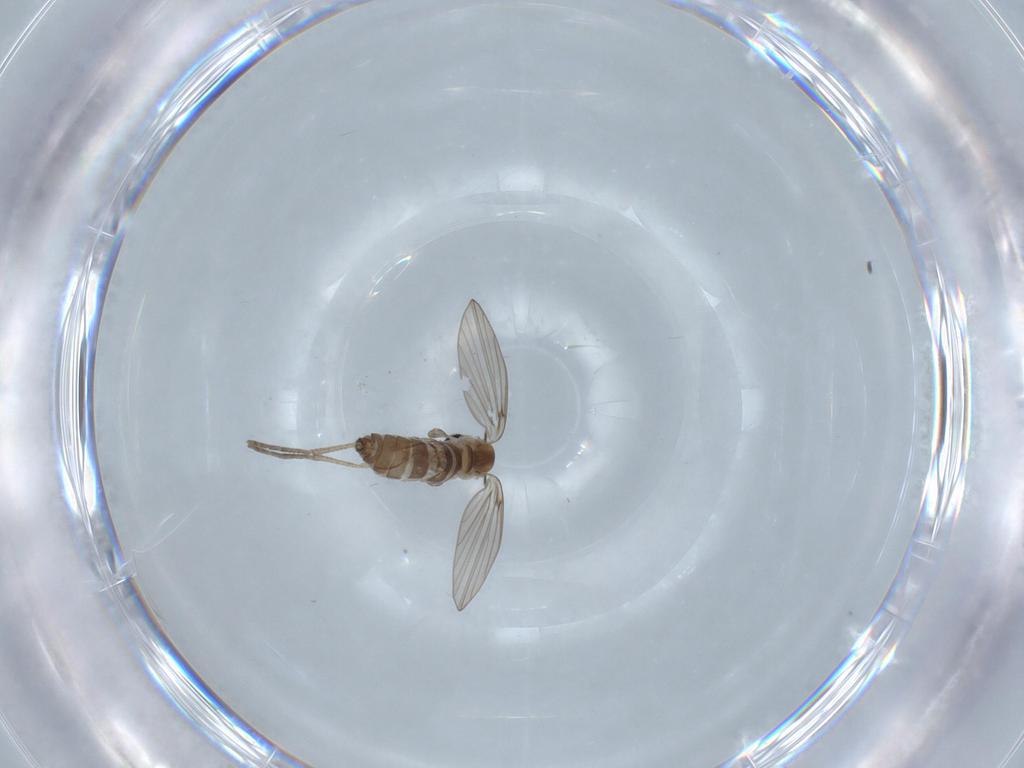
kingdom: Animalia
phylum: Arthropoda
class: Insecta
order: Diptera
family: Psychodidae
